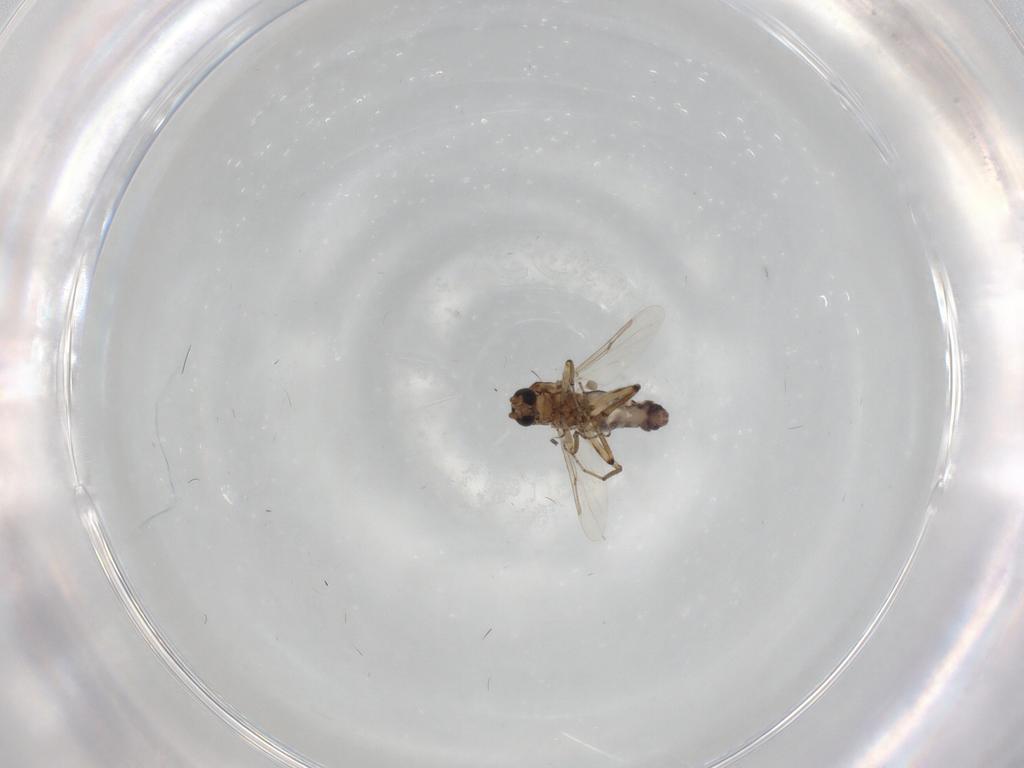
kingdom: Animalia
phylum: Arthropoda
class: Insecta
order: Diptera
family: Ceratopogonidae
